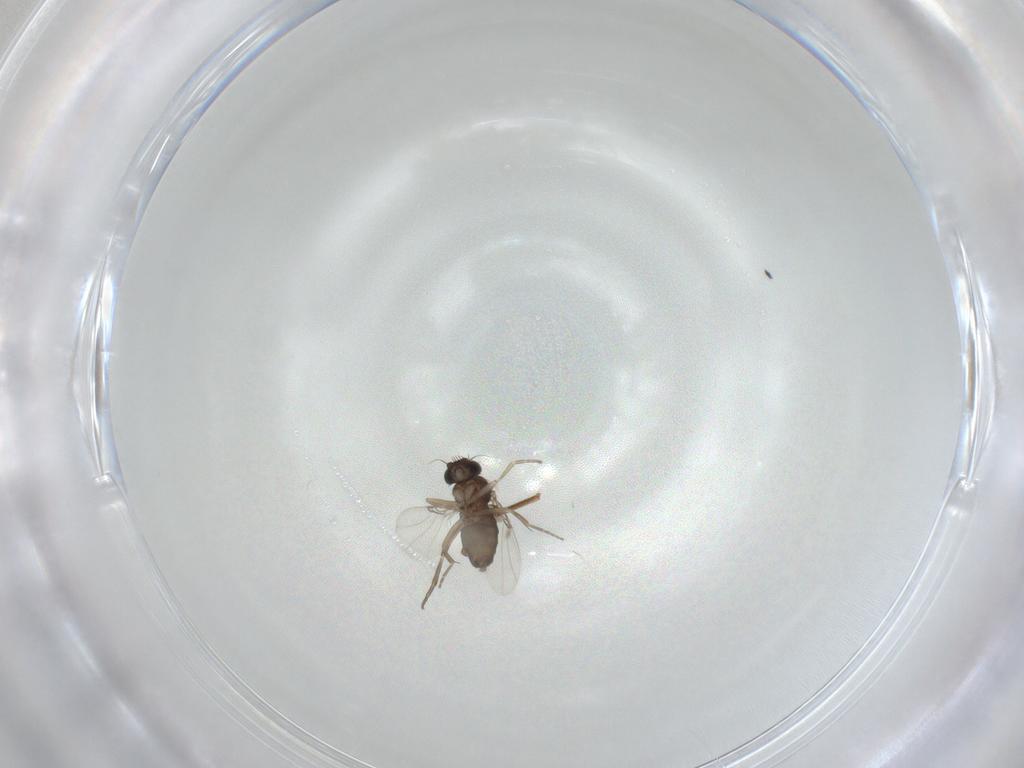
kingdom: Animalia
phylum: Arthropoda
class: Insecta
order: Diptera
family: Phoridae
